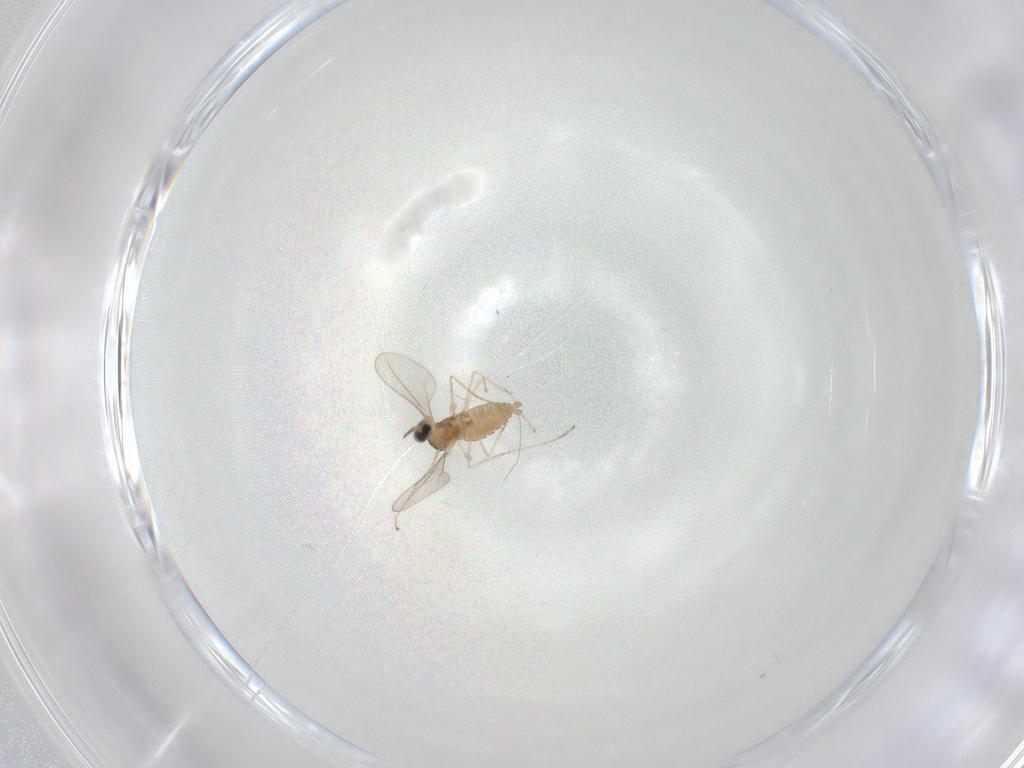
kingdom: Animalia
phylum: Arthropoda
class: Insecta
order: Diptera
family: Cecidomyiidae
